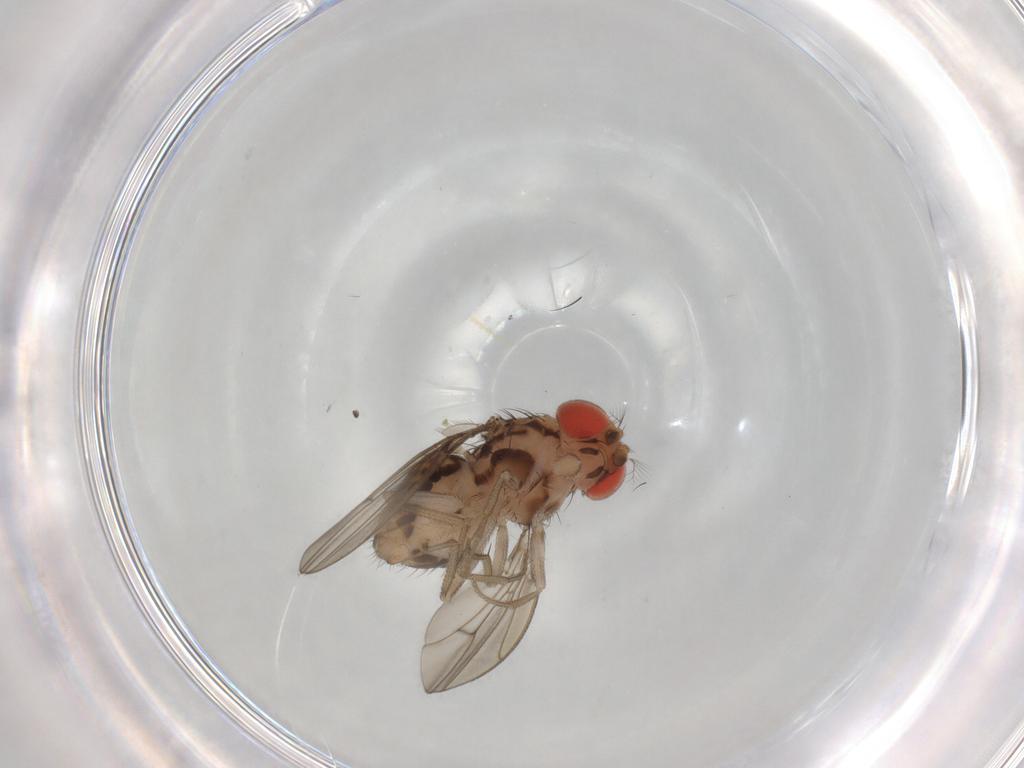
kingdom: Animalia
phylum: Arthropoda
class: Insecta
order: Diptera
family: Drosophilidae
